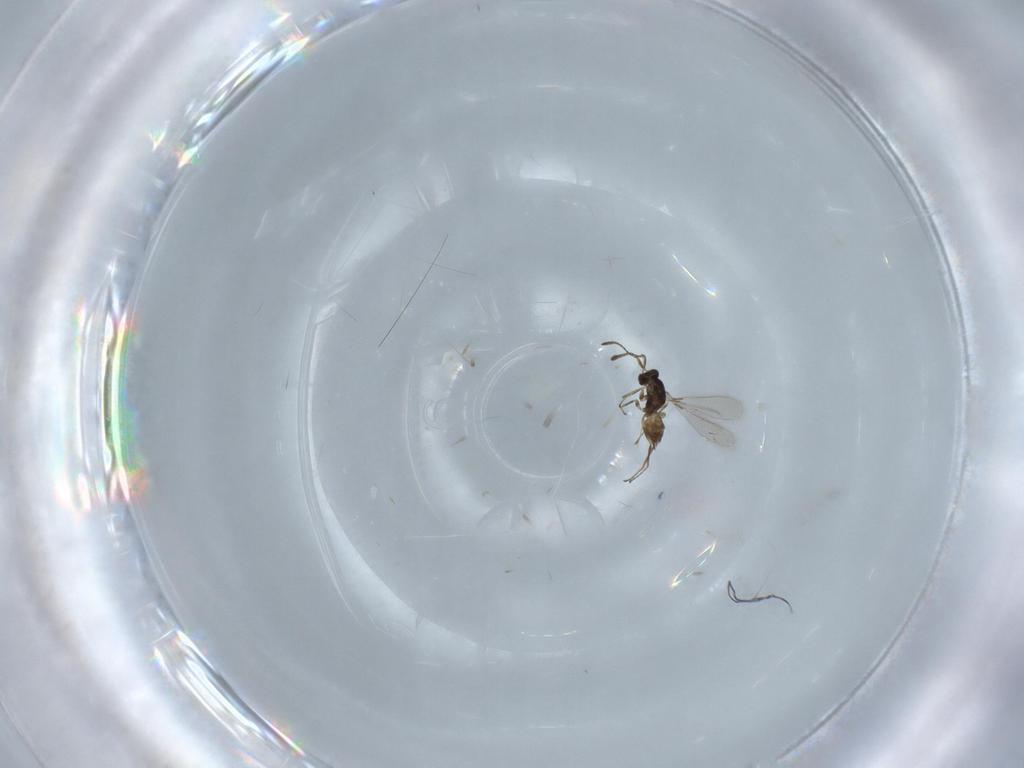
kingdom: Animalia
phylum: Arthropoda
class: Insecta
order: Hymenoptera
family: Mymaridae
